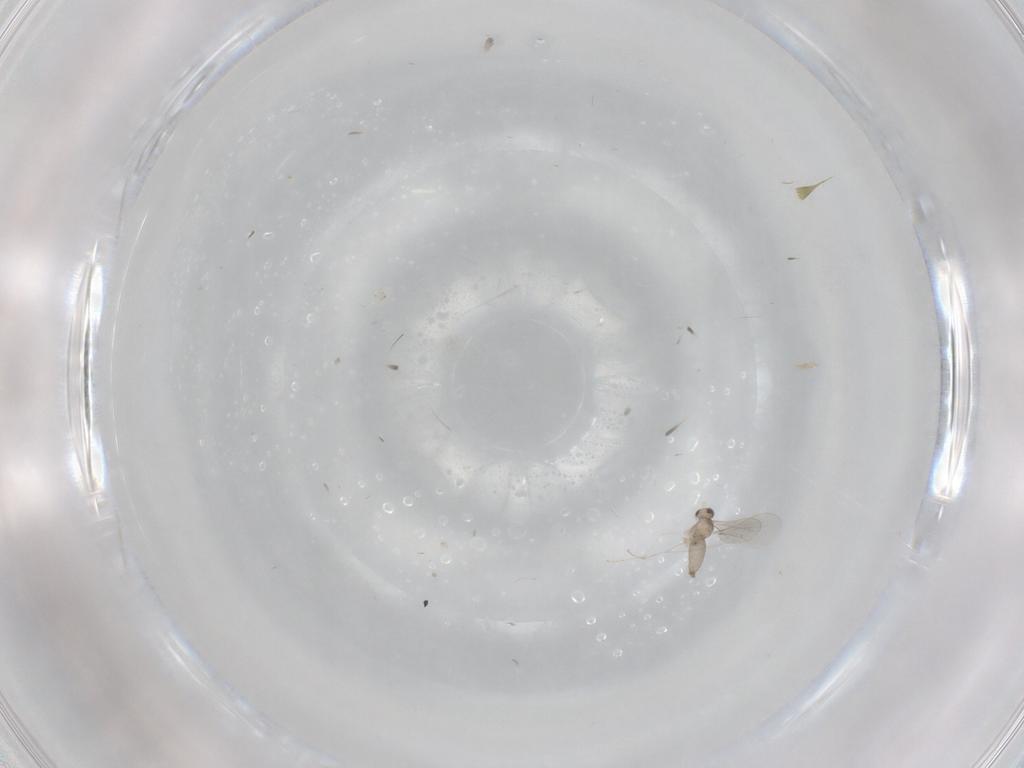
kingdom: Animalia
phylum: Arthropoda
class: Insecta
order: Diptera
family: Cecidomyiidae
